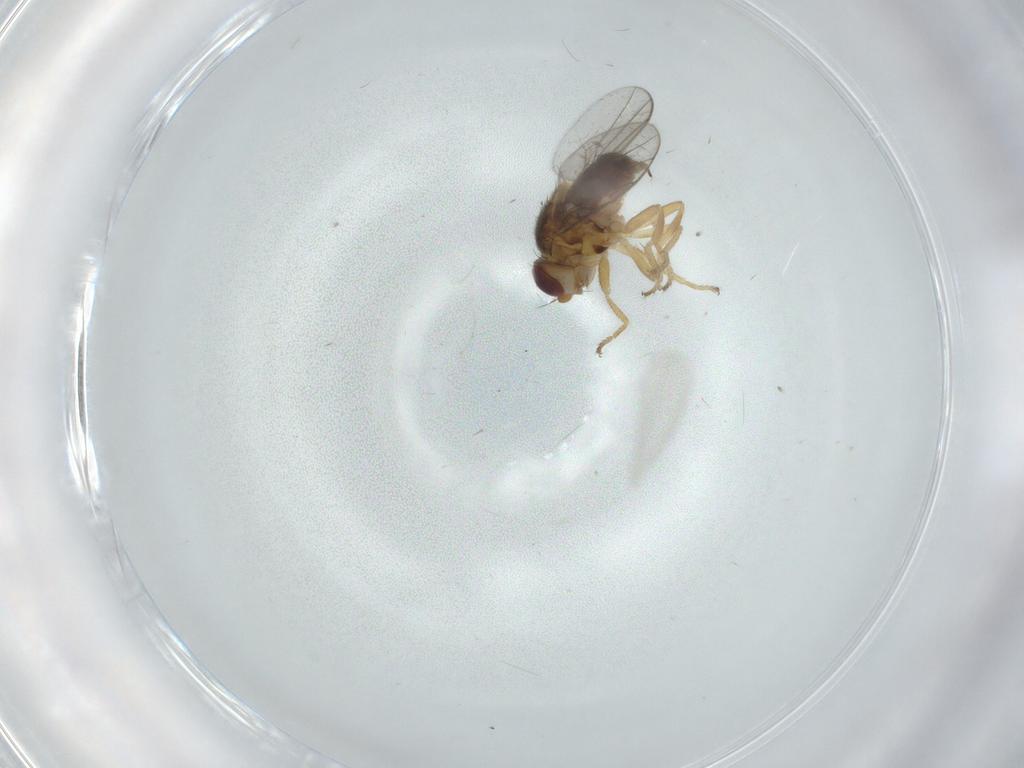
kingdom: Animalia
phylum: Arthropoda
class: Insecta
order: Diptera
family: Chloropidae
